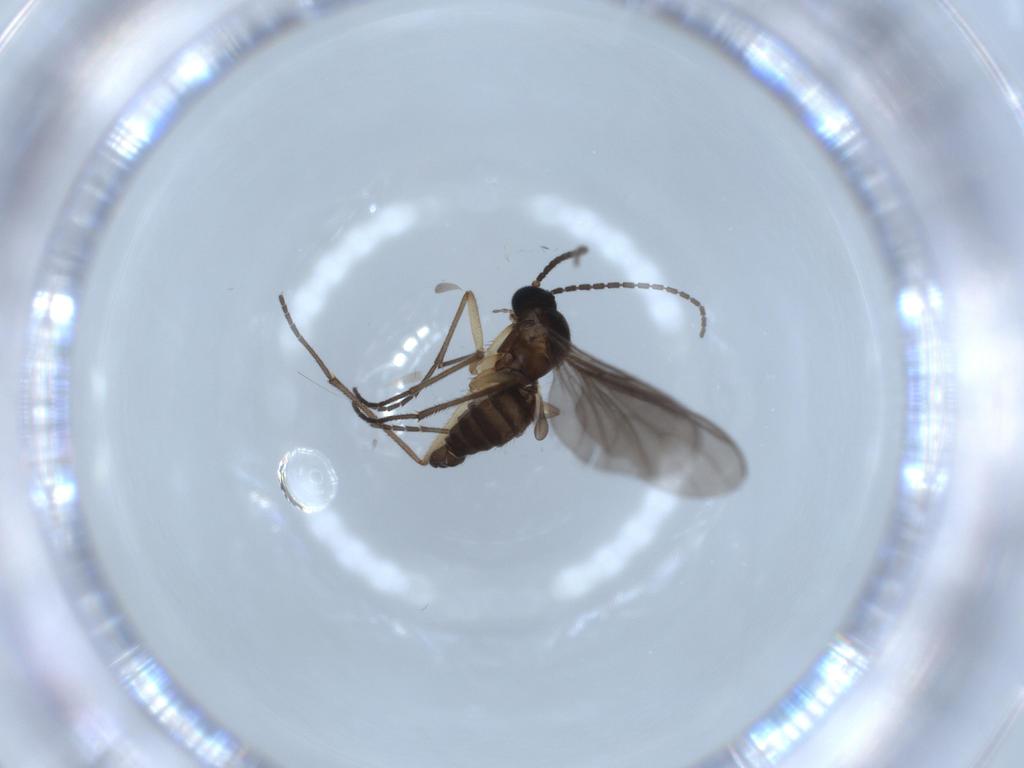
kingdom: Animalia
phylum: Arthropoda
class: Insecta
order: Diptera
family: Sciaridae
